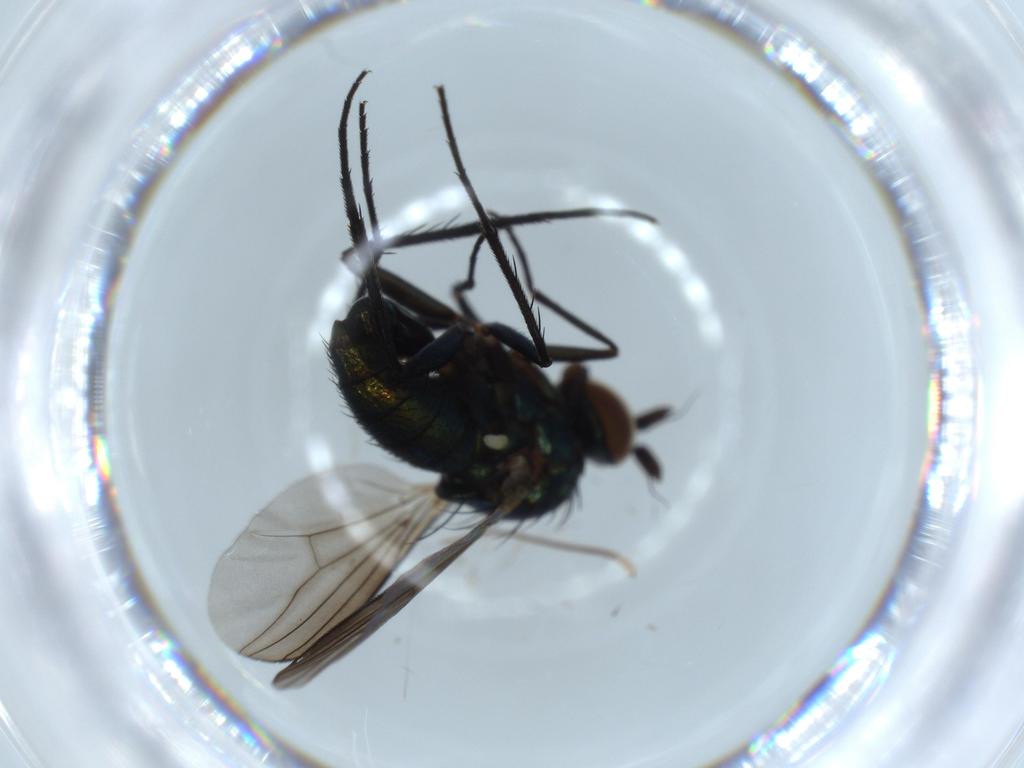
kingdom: Animalia
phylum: Arthropoda
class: Insecta
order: Diptera
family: Dolichopodidae
